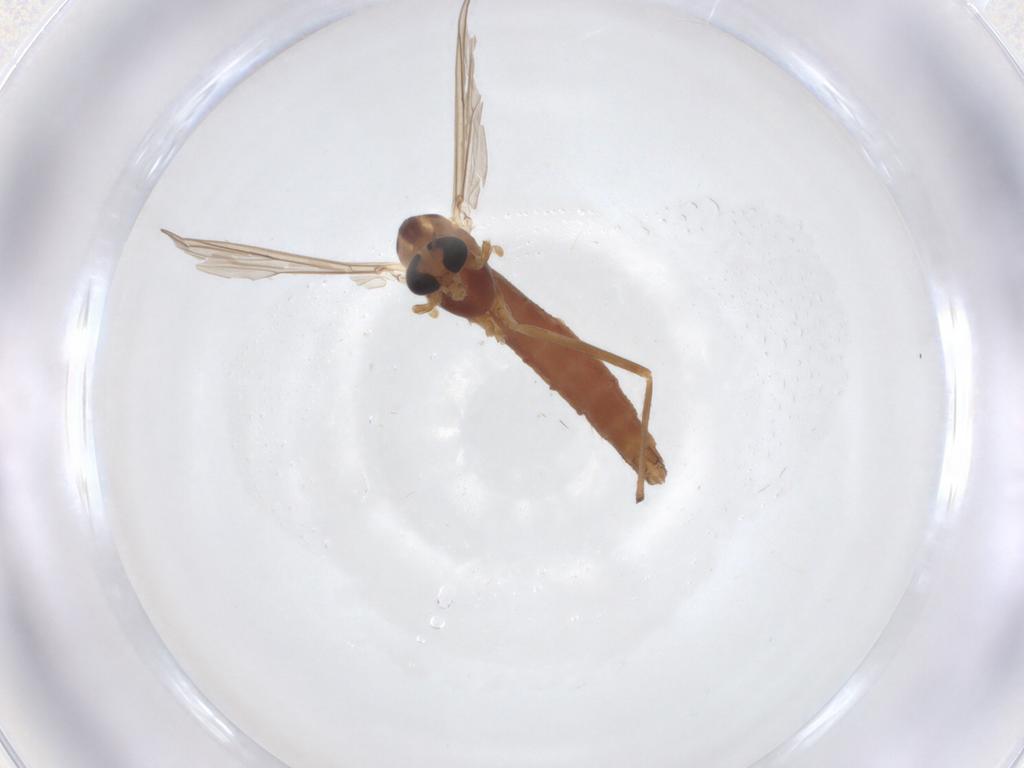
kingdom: Animalia
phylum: Arthropoda
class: Insecta
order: Diptera
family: Chironomidae
